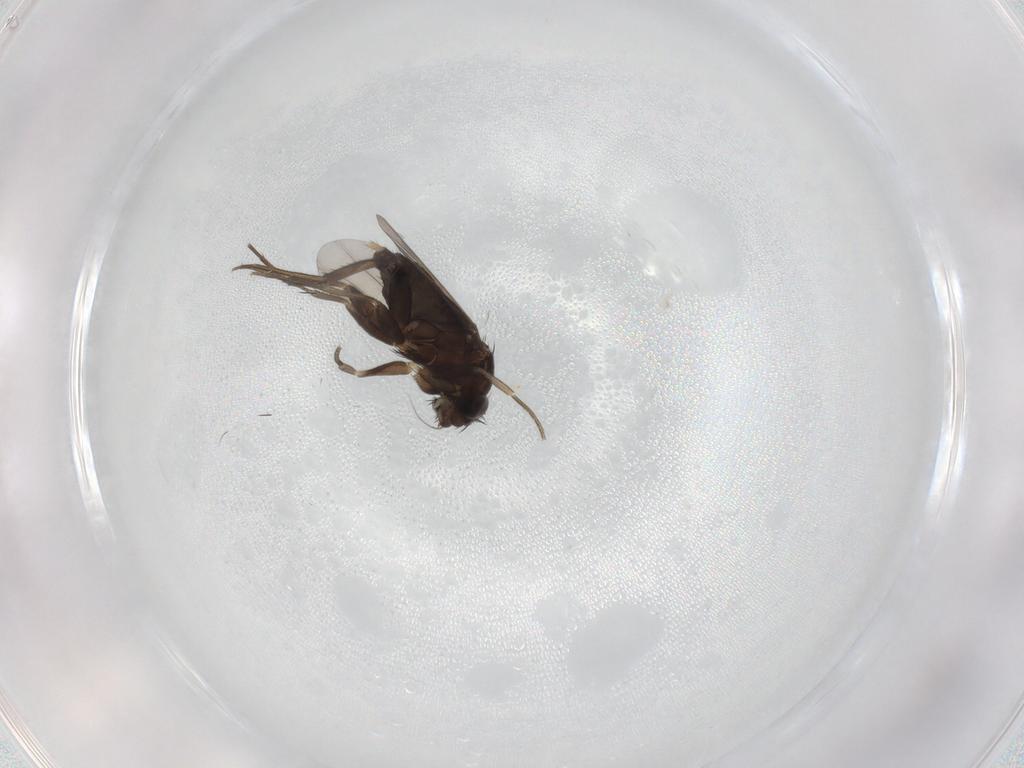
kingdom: Animalia
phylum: Arthropoda
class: Insecta
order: Diptera
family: Phoridae
